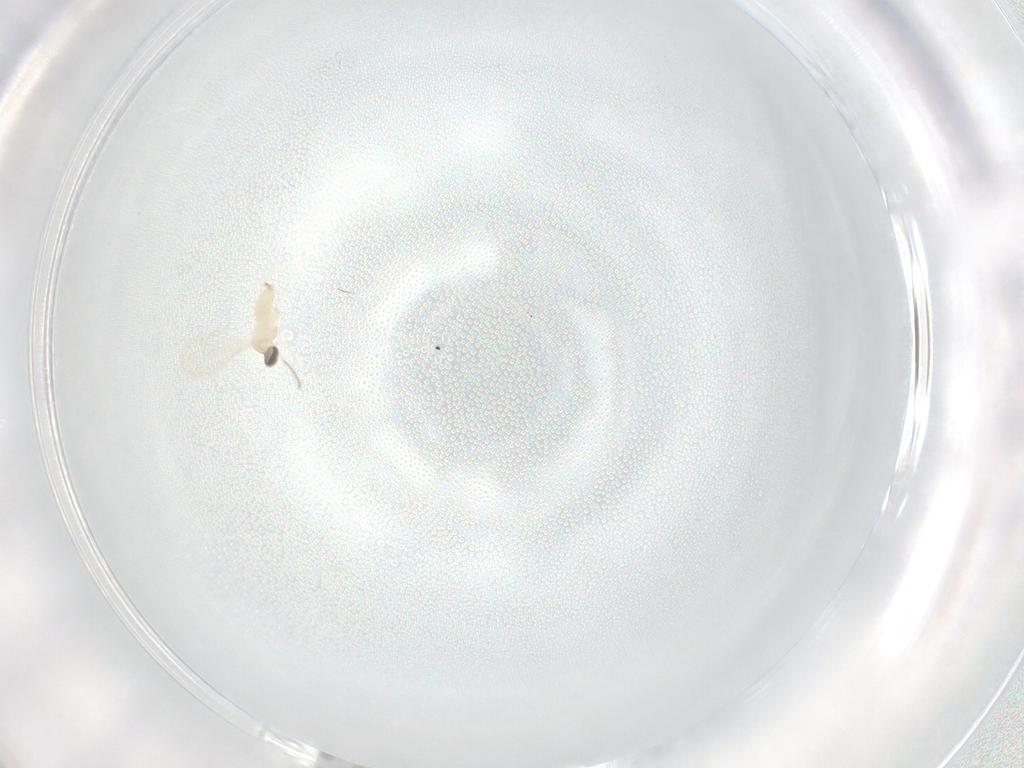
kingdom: Animalia
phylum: Arthropoda
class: Insecta
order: Diptera
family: Cecidomyiidae
